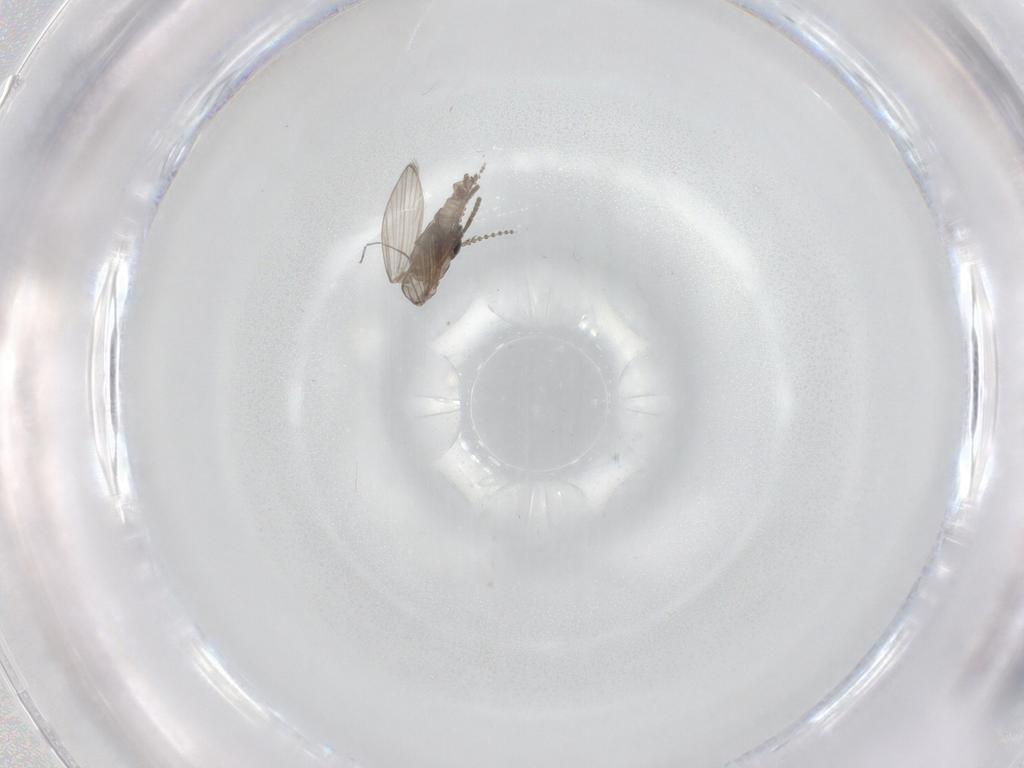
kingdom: Animalia
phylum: Arthropoda
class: Insecta
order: Diptera
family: Psychodidae
